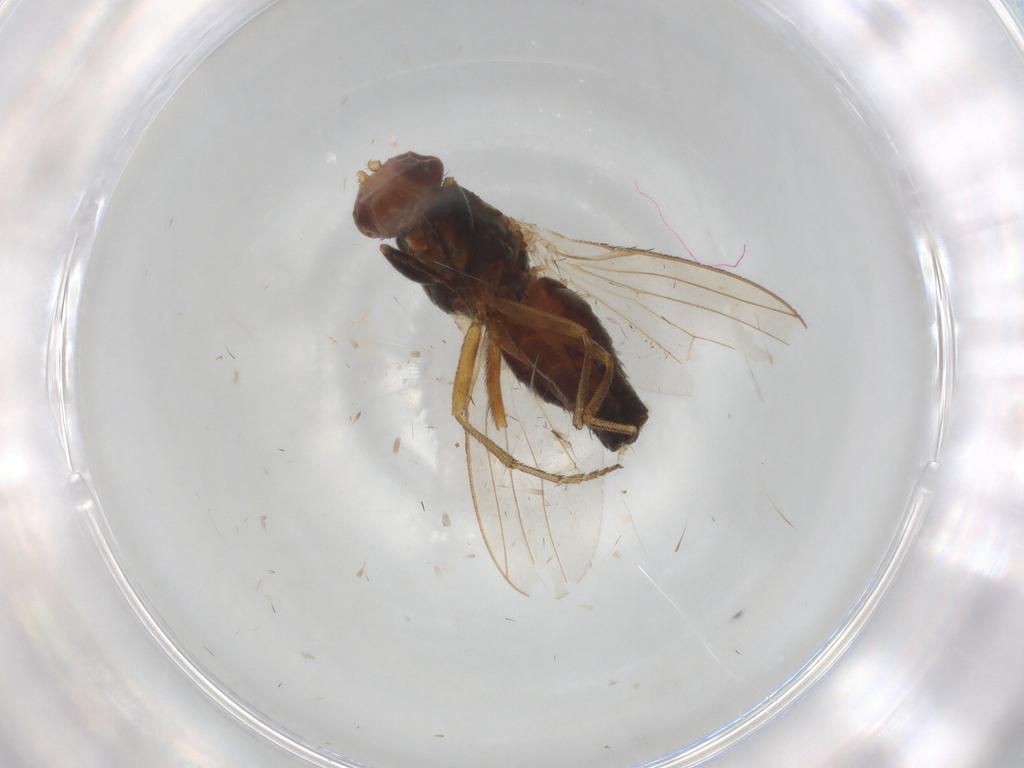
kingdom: Animalia
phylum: Arthropoda
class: Insecta
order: Diptera
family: Heleomyzidae
